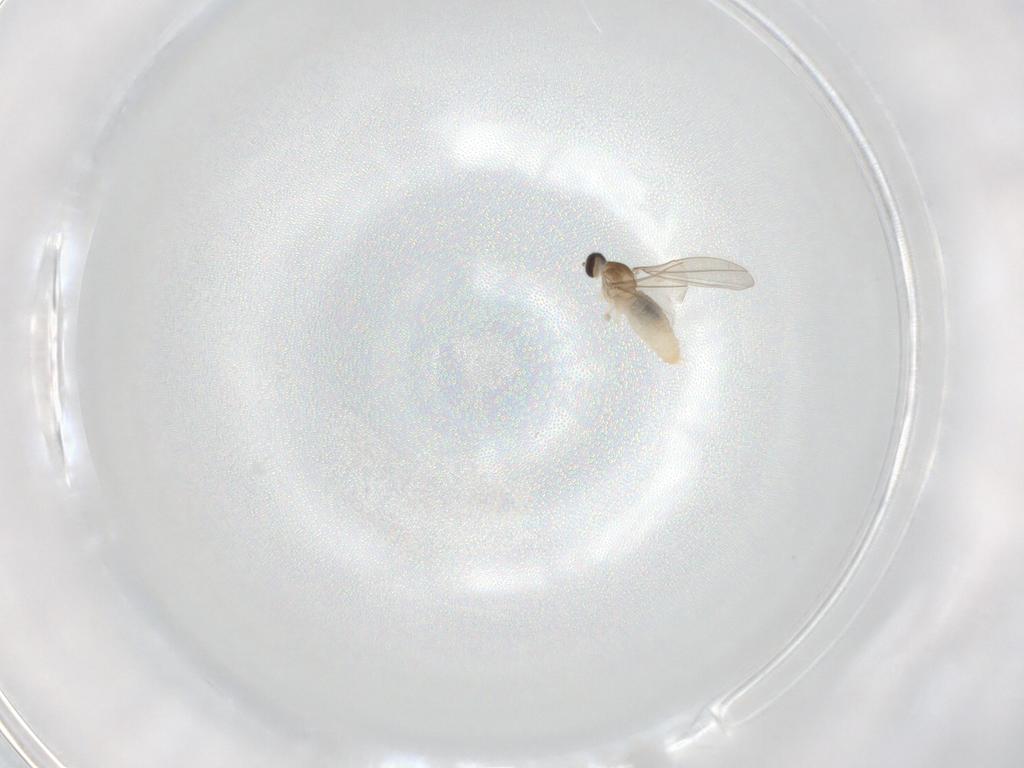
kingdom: Animalia
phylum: Arthropoda
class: Insecta
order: Diptera
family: Cecidomyiidae
